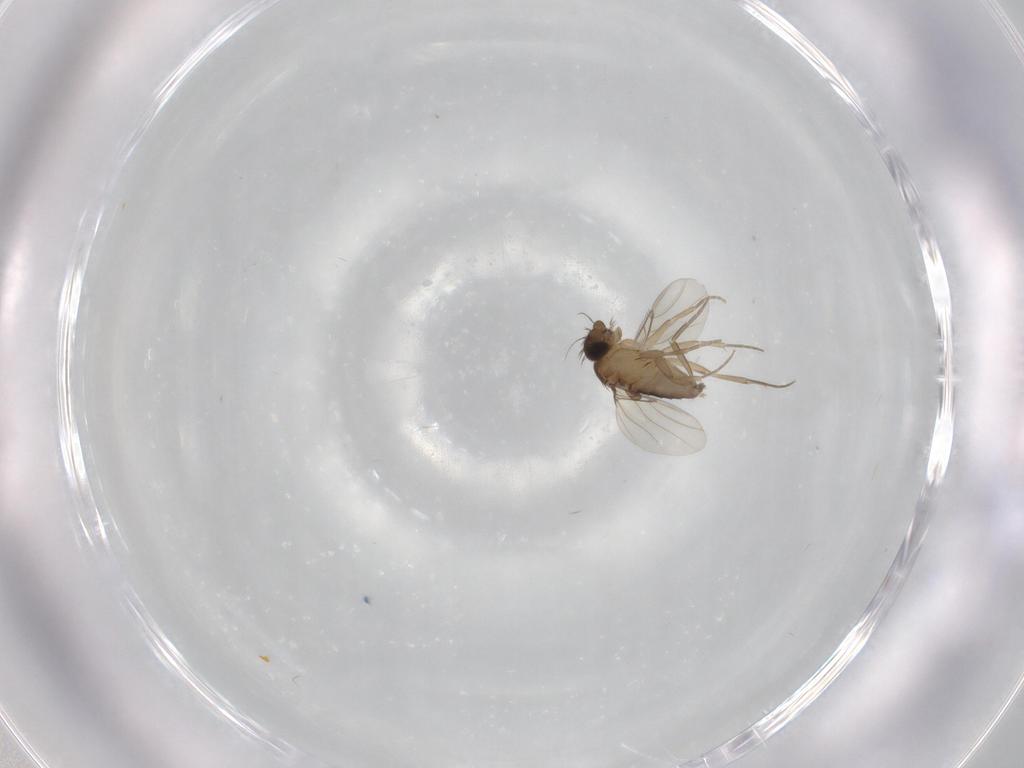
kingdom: Animalia
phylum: Arthropoda
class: Insecta
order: Diptera
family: Phoridae
